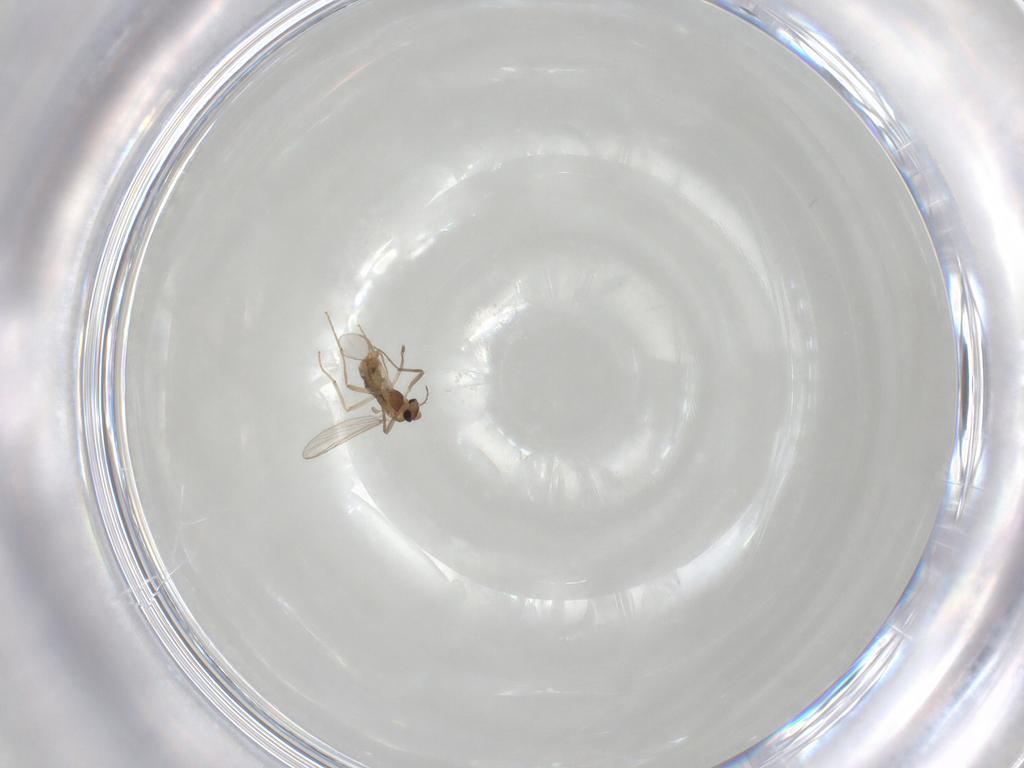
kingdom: Animalia
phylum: Arthropoda
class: Insecta
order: Diptera
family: Chironomidae
